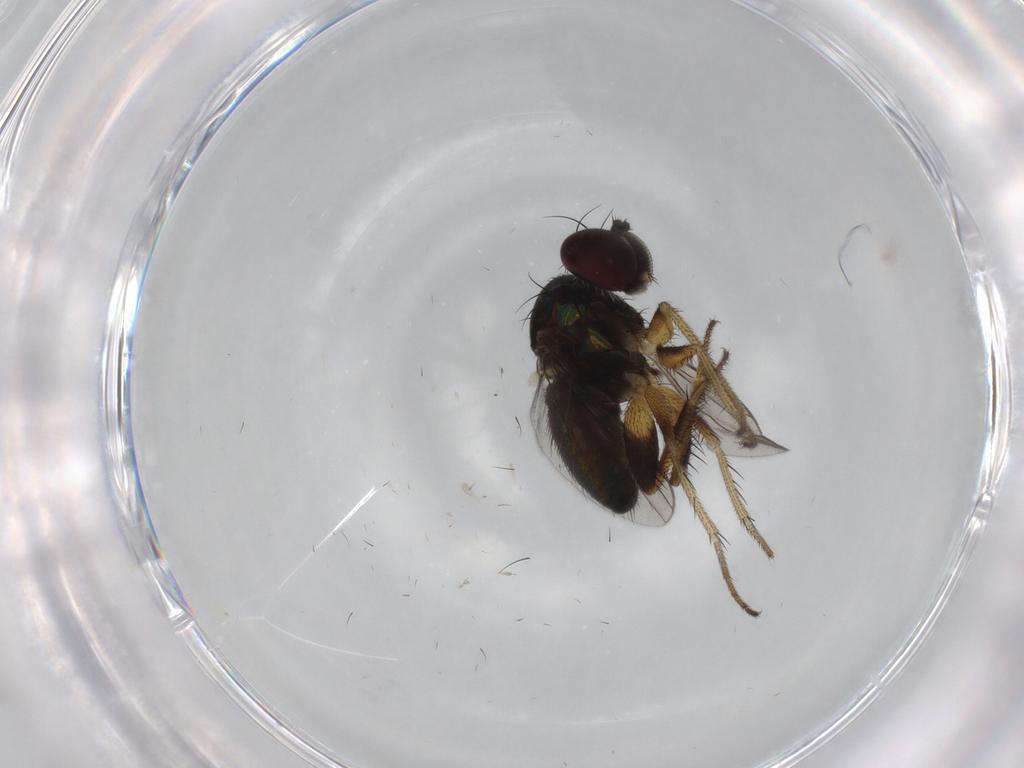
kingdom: Animalia
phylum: Arthropoda
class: Insecta
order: Diptera
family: Dolichopodidae
